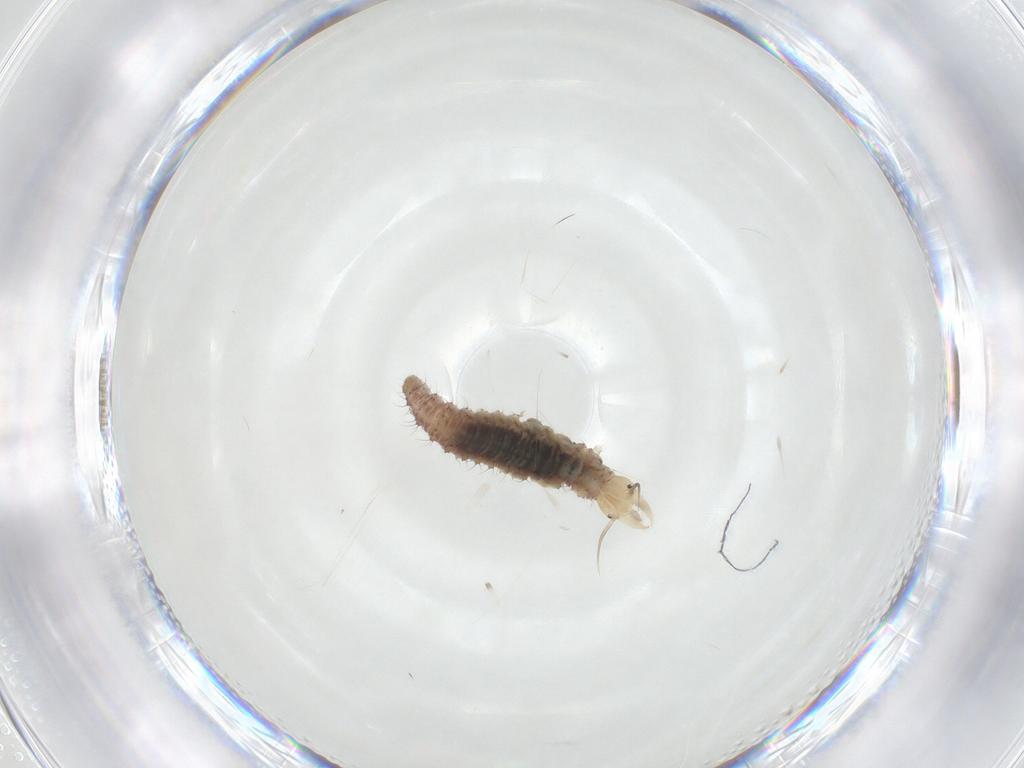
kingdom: Animalia
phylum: Arthropoda
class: Insecta
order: Neuroptera
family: Hemerobiidae
